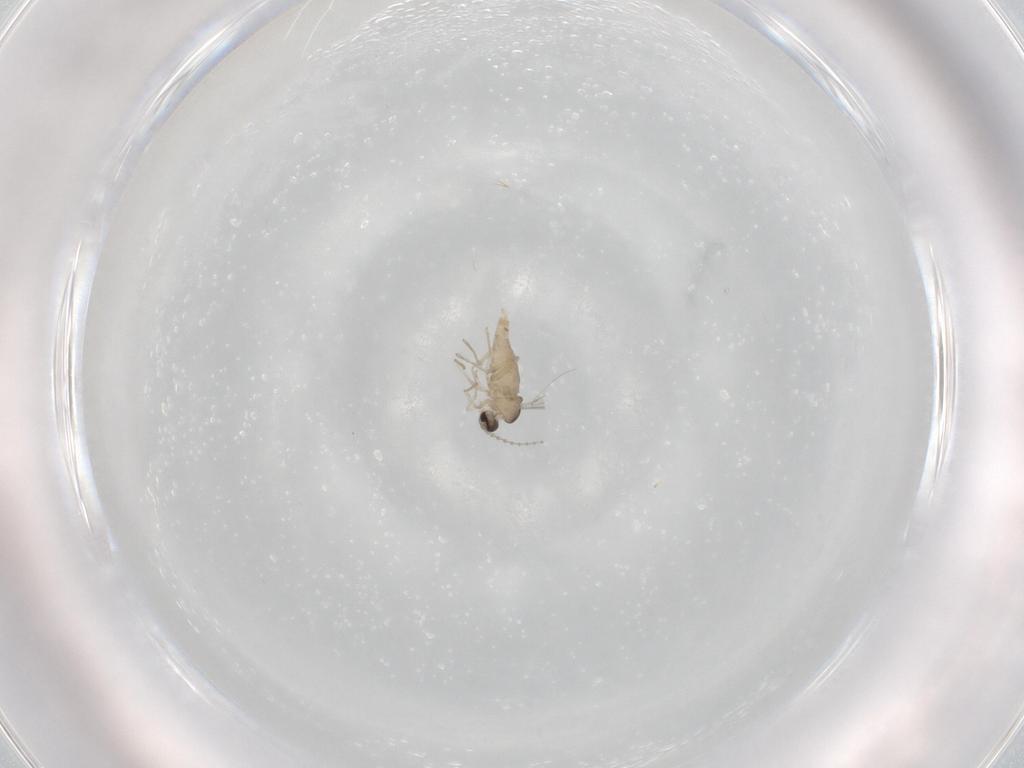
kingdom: Animalia
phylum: Arthropoda
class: Insecta
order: Diptera
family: Cecidomyiidae
